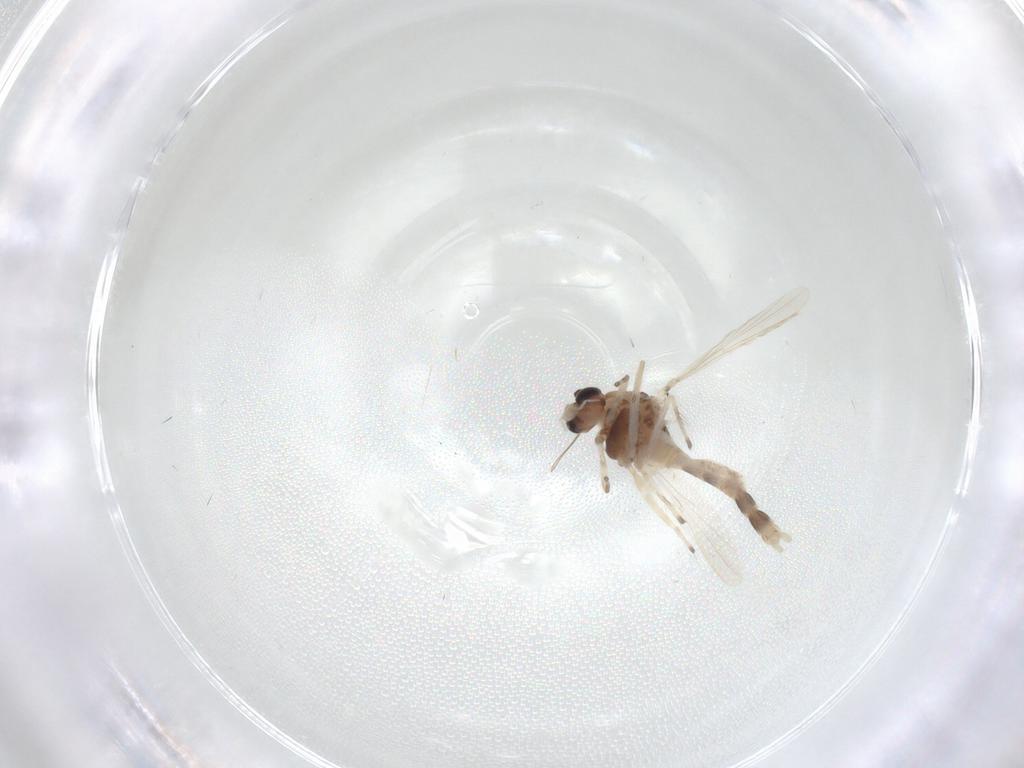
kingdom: Animalia
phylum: Arthropoda
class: Insecta
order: Diptera
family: Chironomidae
